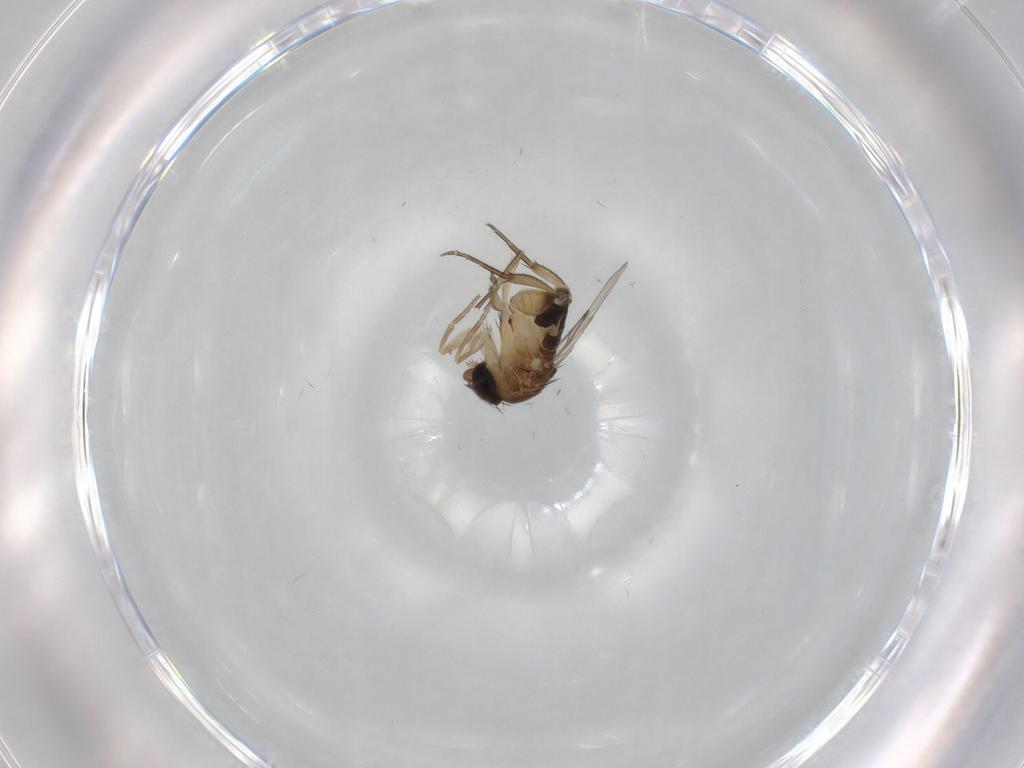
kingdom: Animalia
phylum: Arthropoda
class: Insecta
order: Diptera
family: Phoridae
